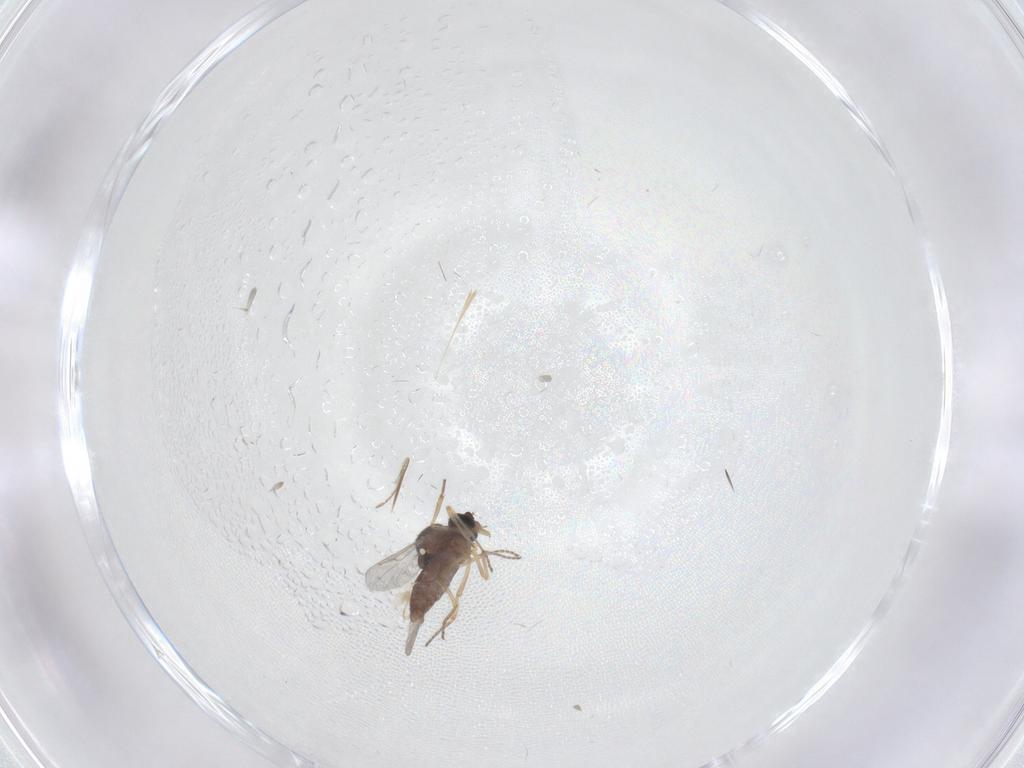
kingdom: Animalia
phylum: Arthropoda
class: Insecta
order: Diptera
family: Ceratopogonidae
